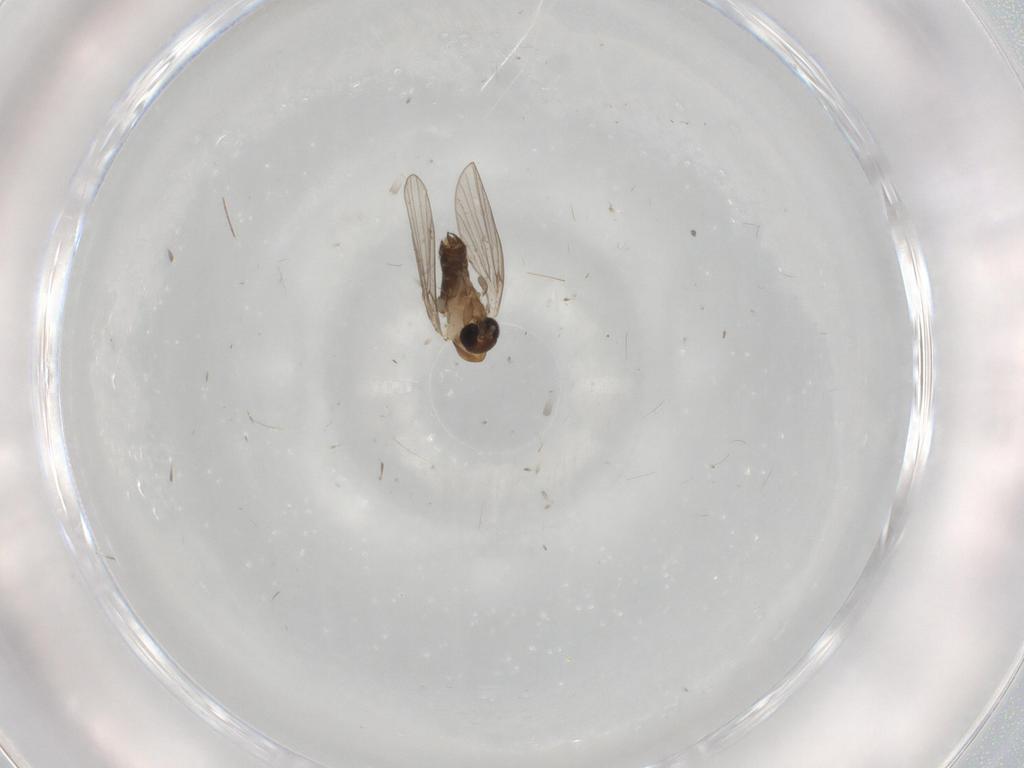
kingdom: Animalia
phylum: Arthropoda
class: Insecta
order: Diptera
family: Psychodidae
